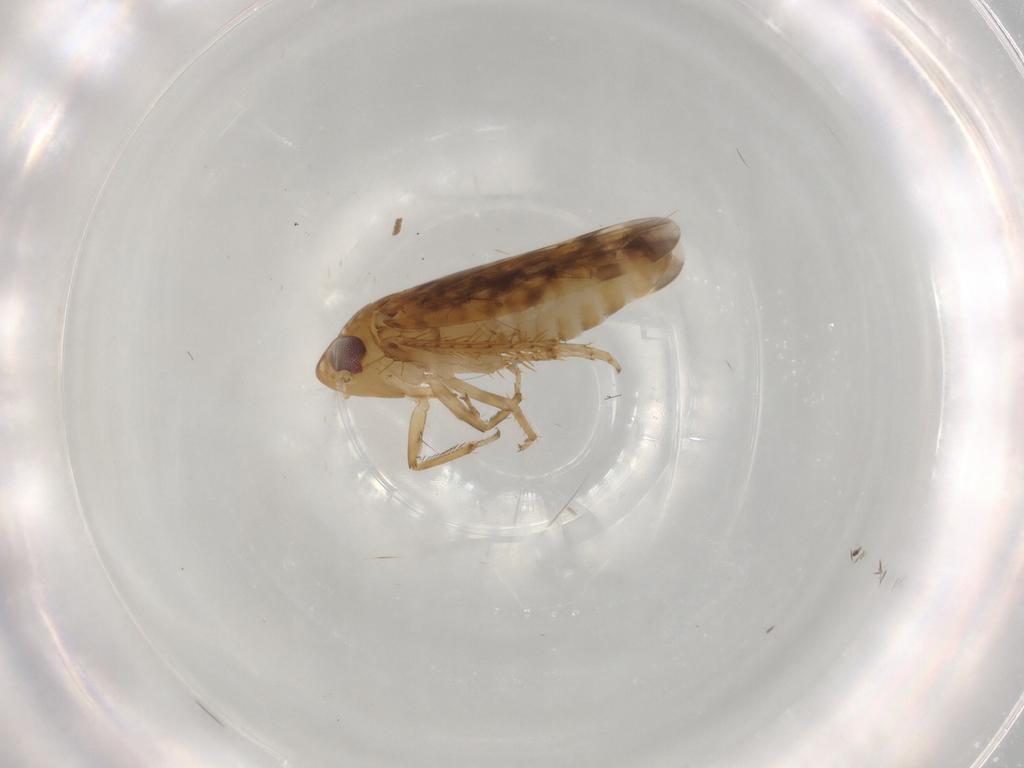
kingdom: Animalia
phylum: Arthropoda
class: Insecta
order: Hemiptera
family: Cicadellidae
